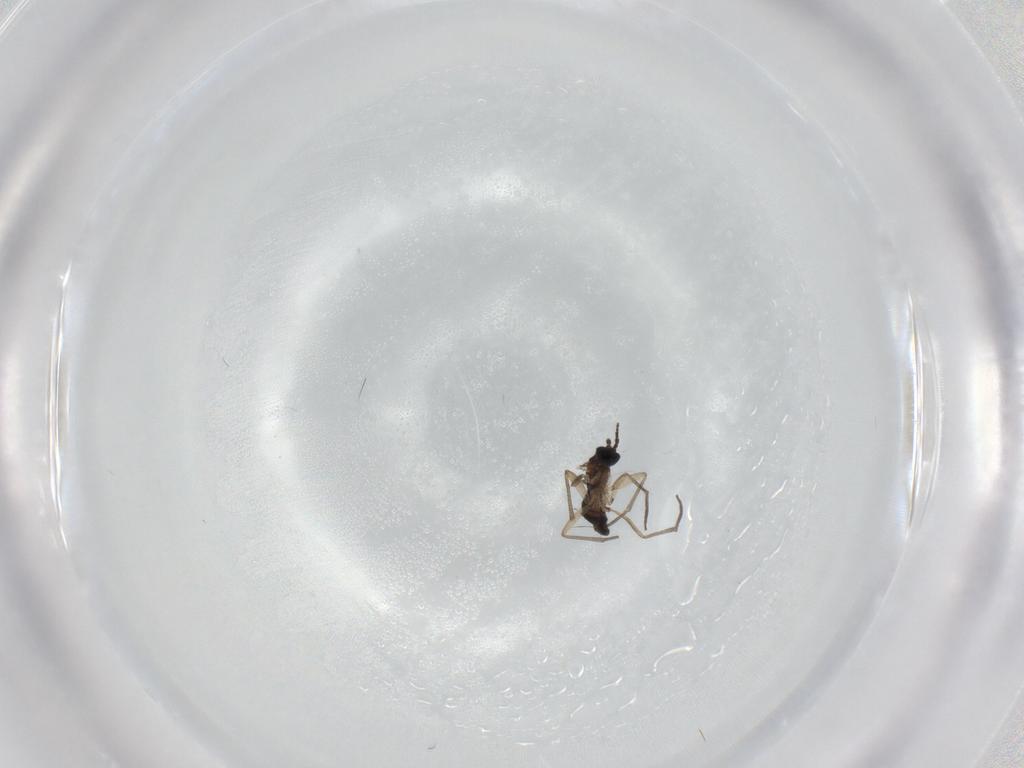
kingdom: Animalia
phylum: Arthropoda
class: Insecta
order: Diptera
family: Sciaridae
